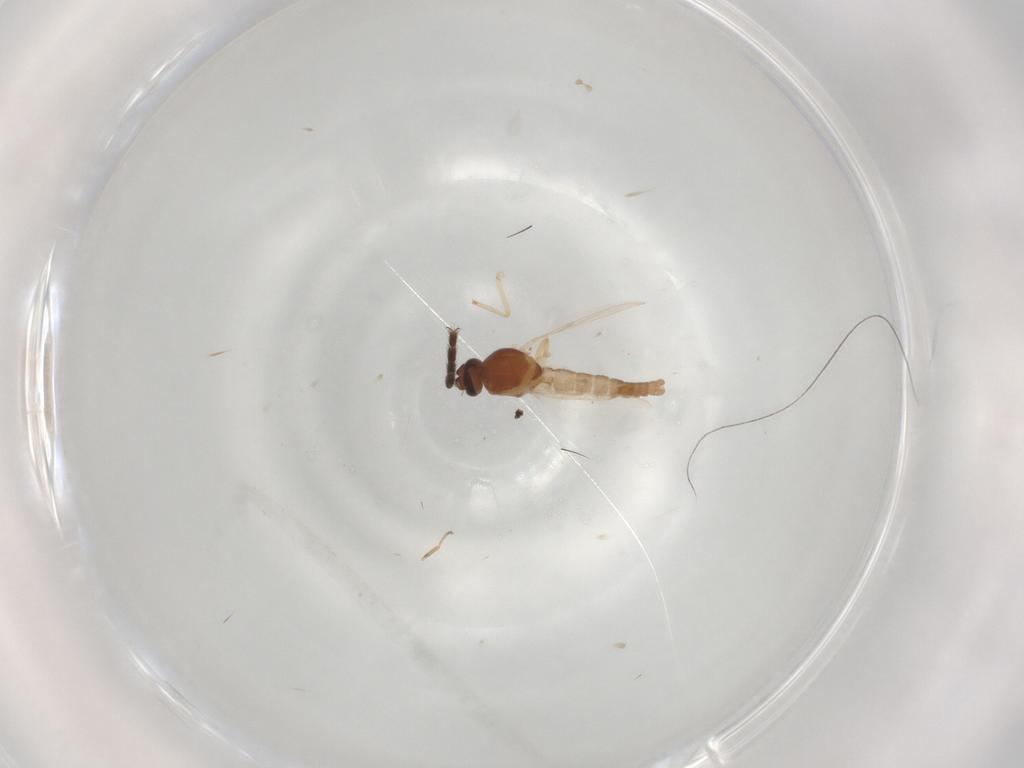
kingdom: Animalia
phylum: Arthropoda
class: Insecta
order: Diptera
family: Scatopsidae
